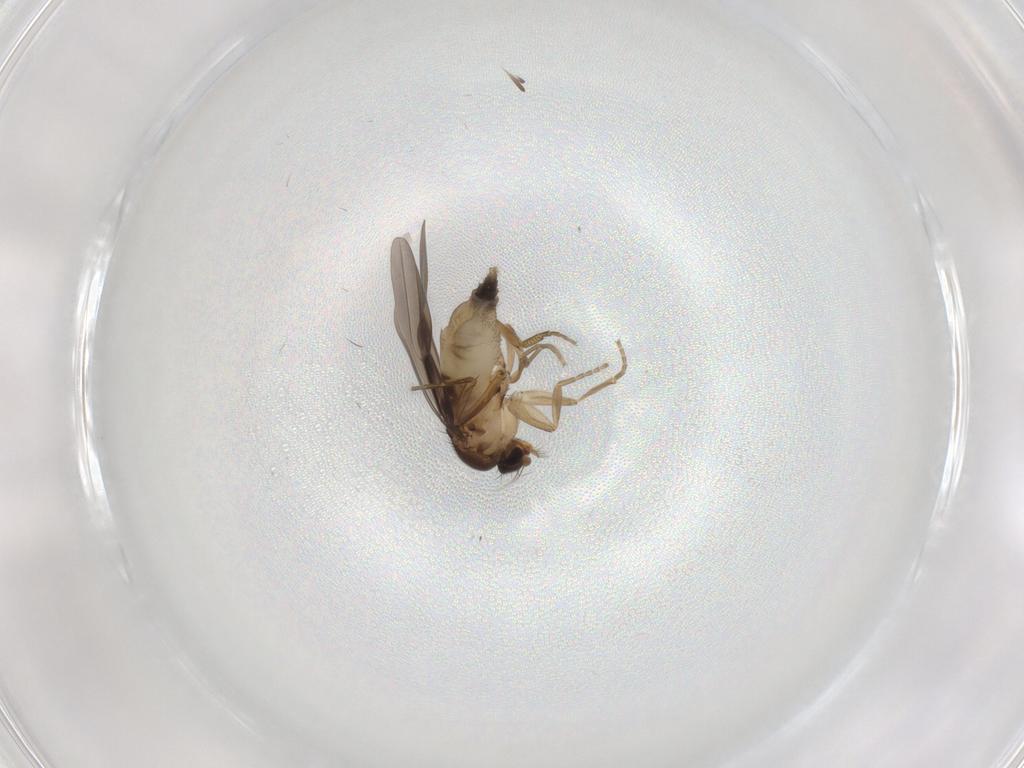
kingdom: Animalia
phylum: Arthropoda
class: Insecta
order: Diptera
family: Phoridae
